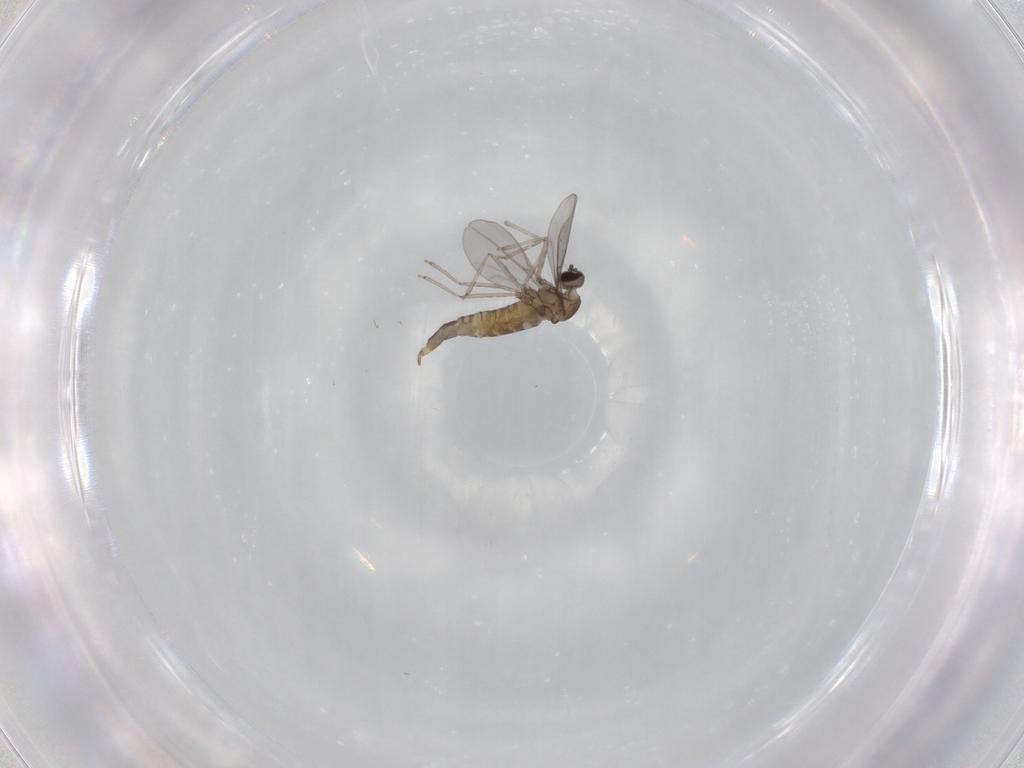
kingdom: Animalia
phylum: Arthropoda
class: Insecta
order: Diptera
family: Cecidomyiidae
